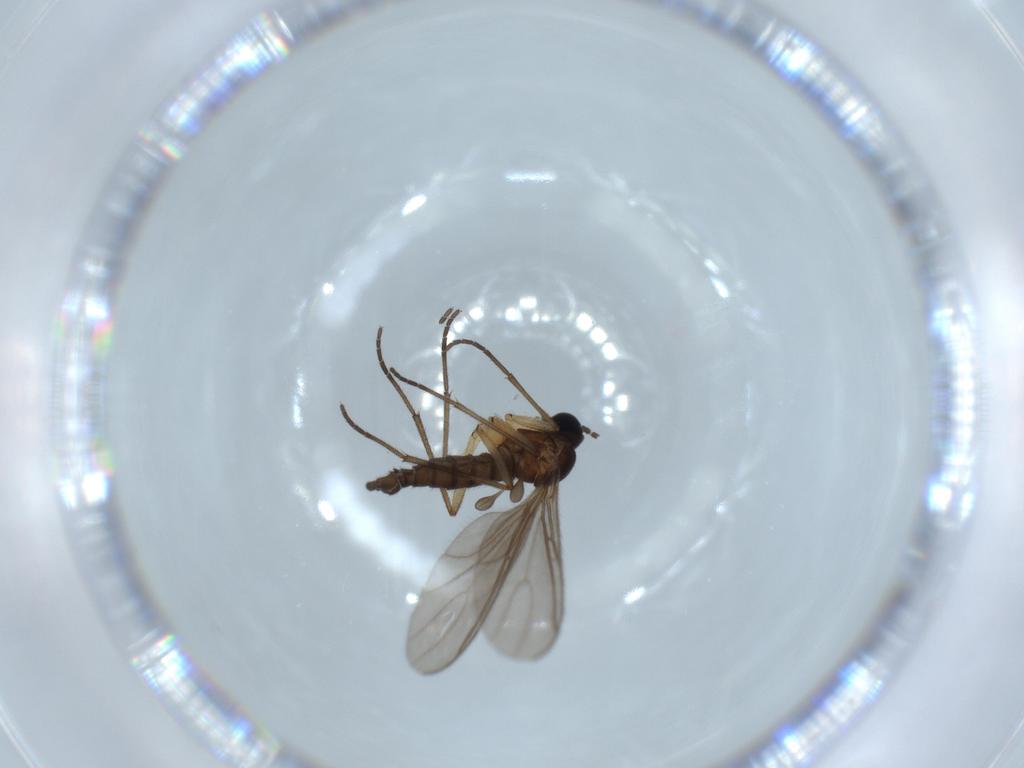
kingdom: Animalia
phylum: Arthropoda
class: Insecta
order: Diptera
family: Sciaridae
